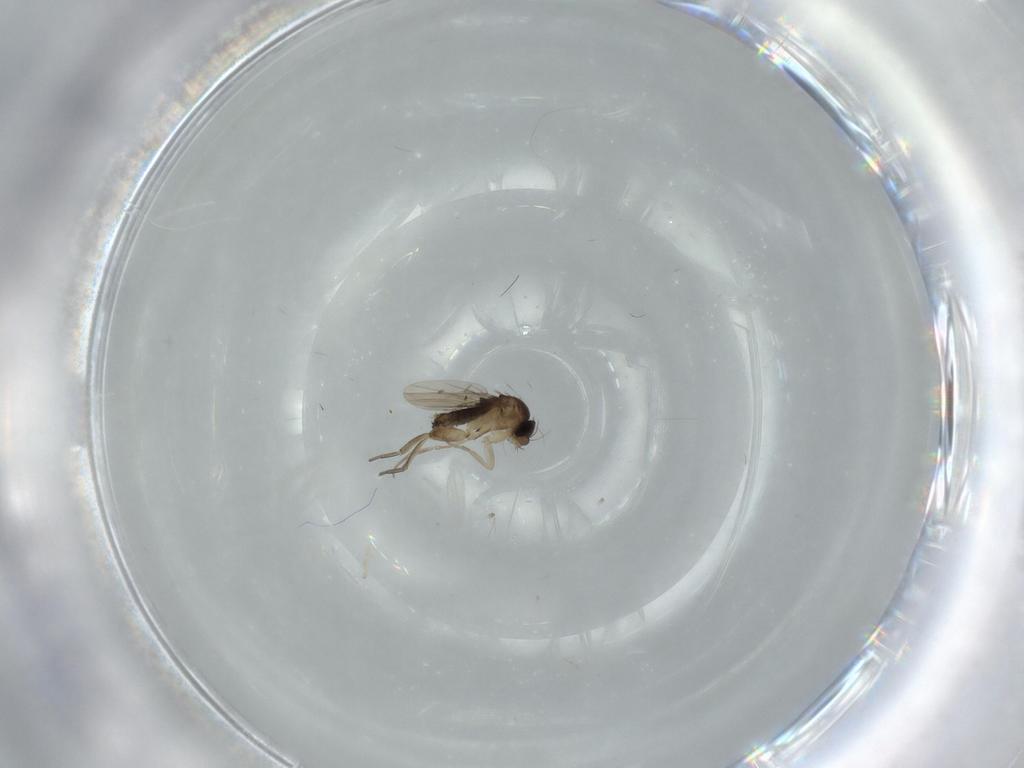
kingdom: Animalia
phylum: Arthropoda
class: Insecta
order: Diptera
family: Phoridae
